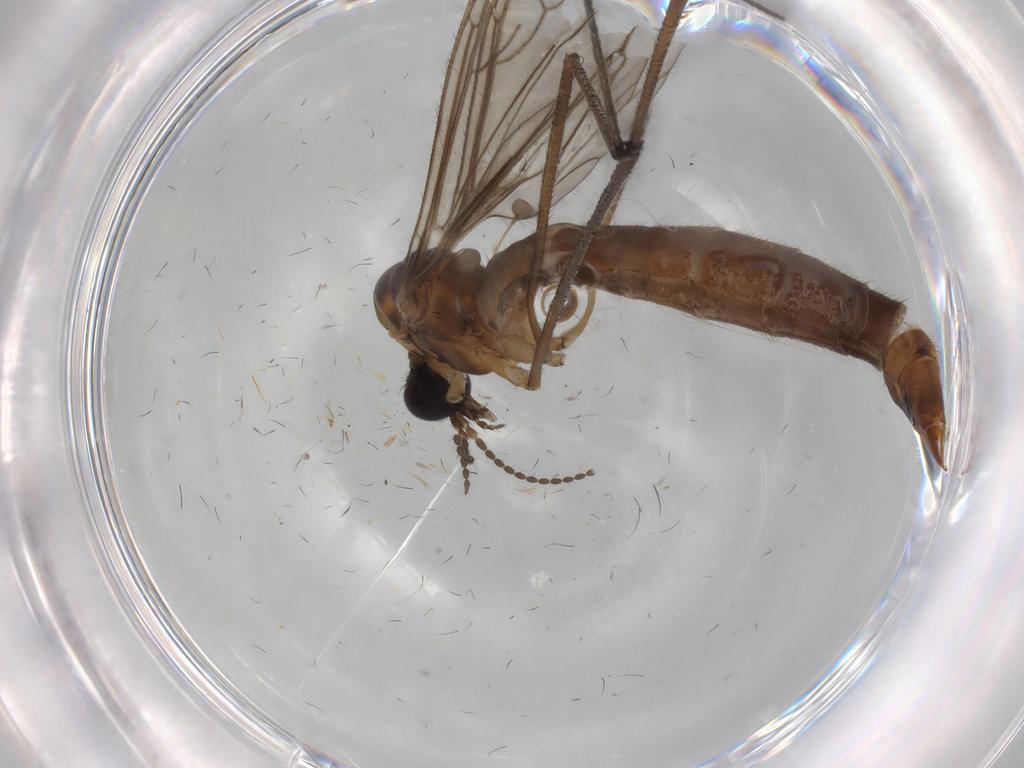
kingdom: Animalia
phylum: Arthropoda
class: Insecta
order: Diptera
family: Limoniidae
